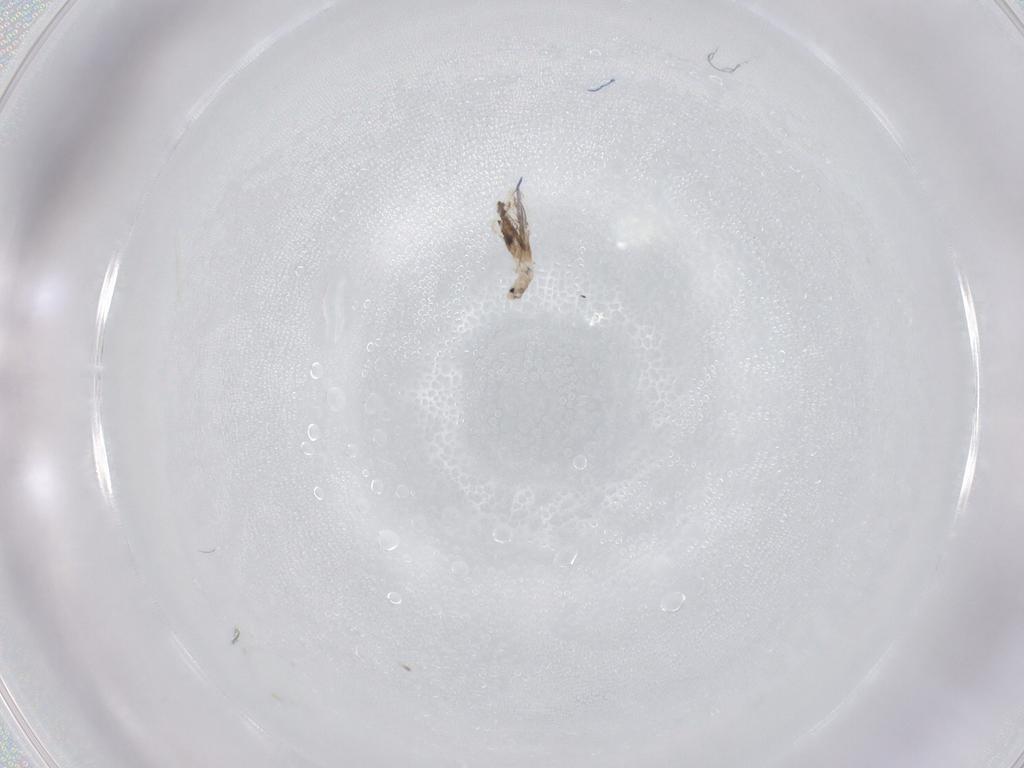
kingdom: Animalia
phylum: Arthropoda
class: Collembola
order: Entomobryomorpha
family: Entomobryidae
